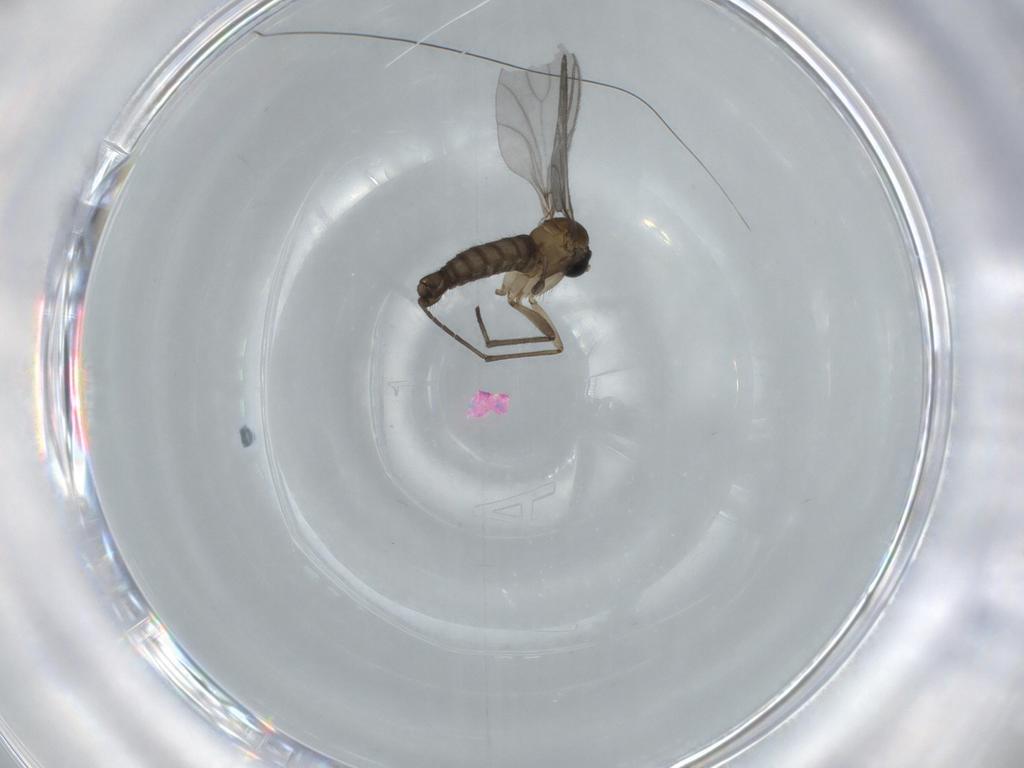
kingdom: Animalia
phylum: Arthropoda
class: Insecta
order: Diptera
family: Sciaridae
